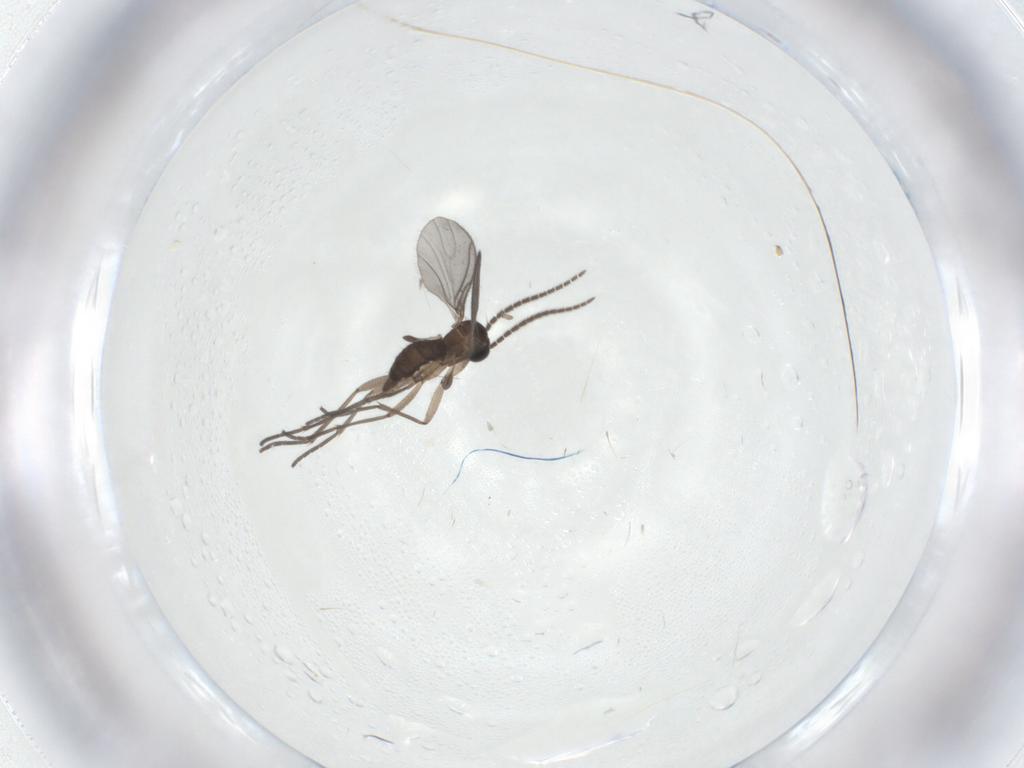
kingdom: Animalia
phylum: Arthropoda
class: Insecta
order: Diptera
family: Sciaridae
